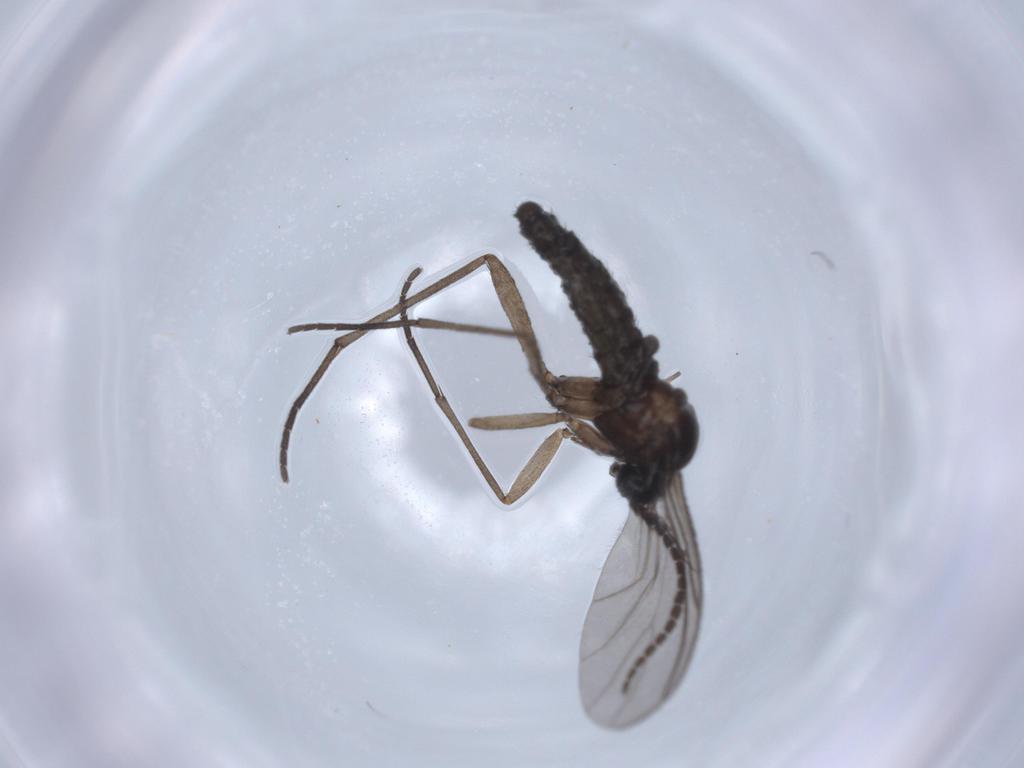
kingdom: Animalia
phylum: Arthropoda
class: Insecta
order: Diptera
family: Sciaridae
